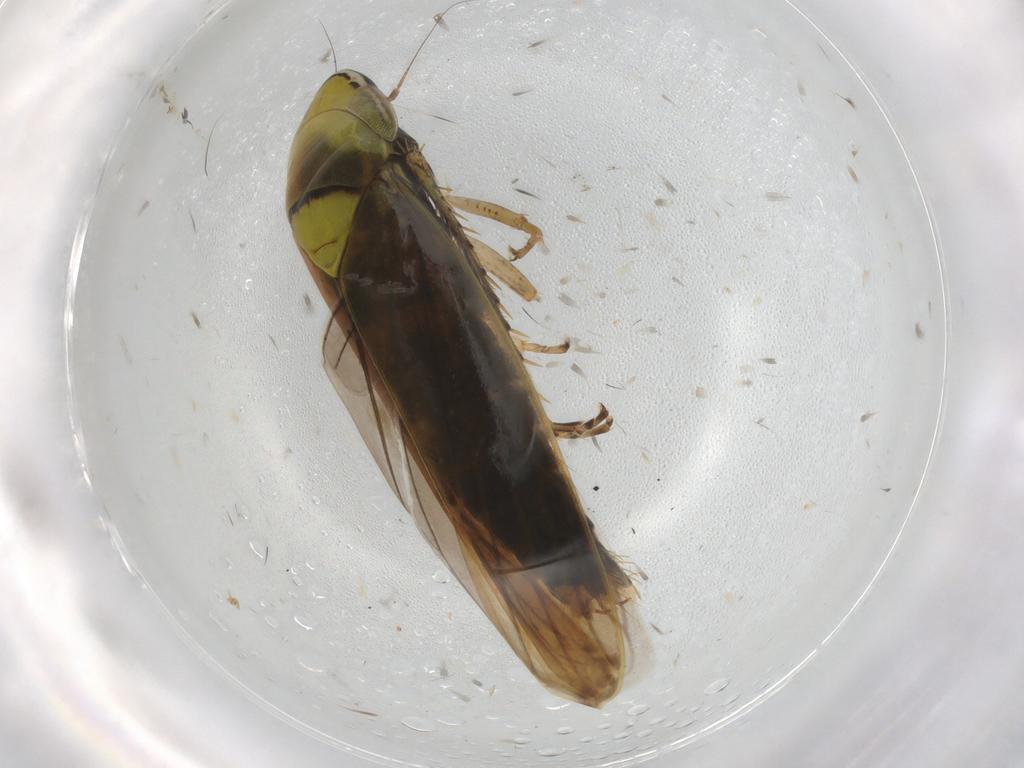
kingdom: Animalia
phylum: Arthropoda
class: Insecta
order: Hemiptera
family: Cicadellidae
